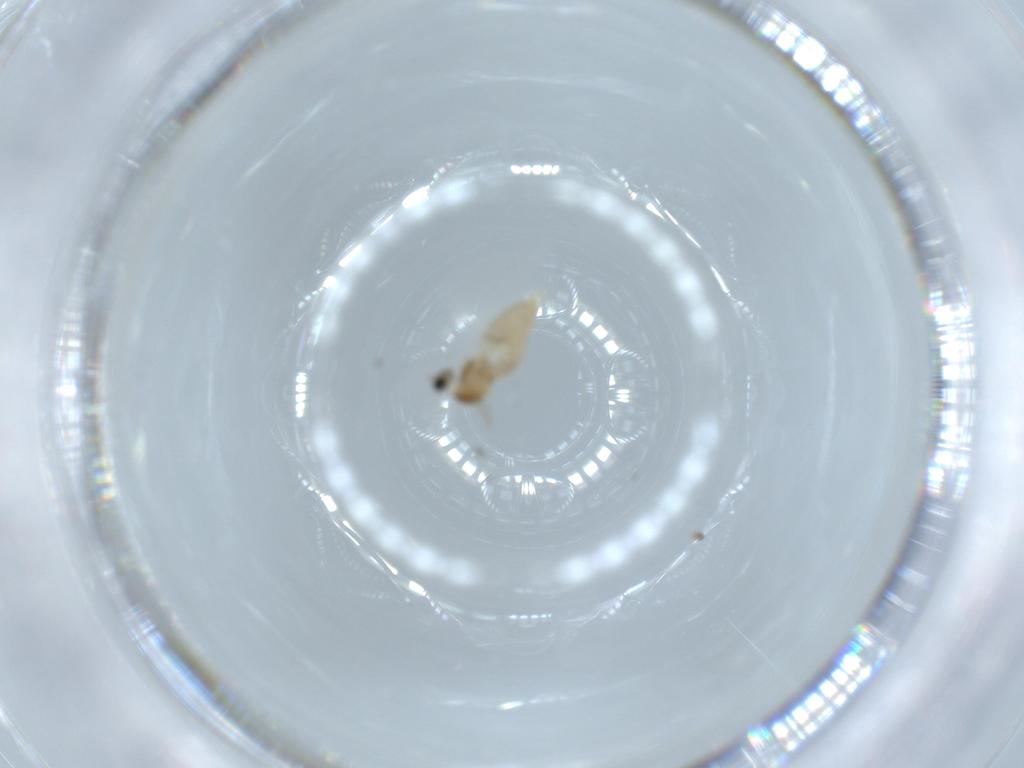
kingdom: Animalia
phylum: Arthropoda
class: Insecta
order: Diptera
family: Cecidomyiidae
